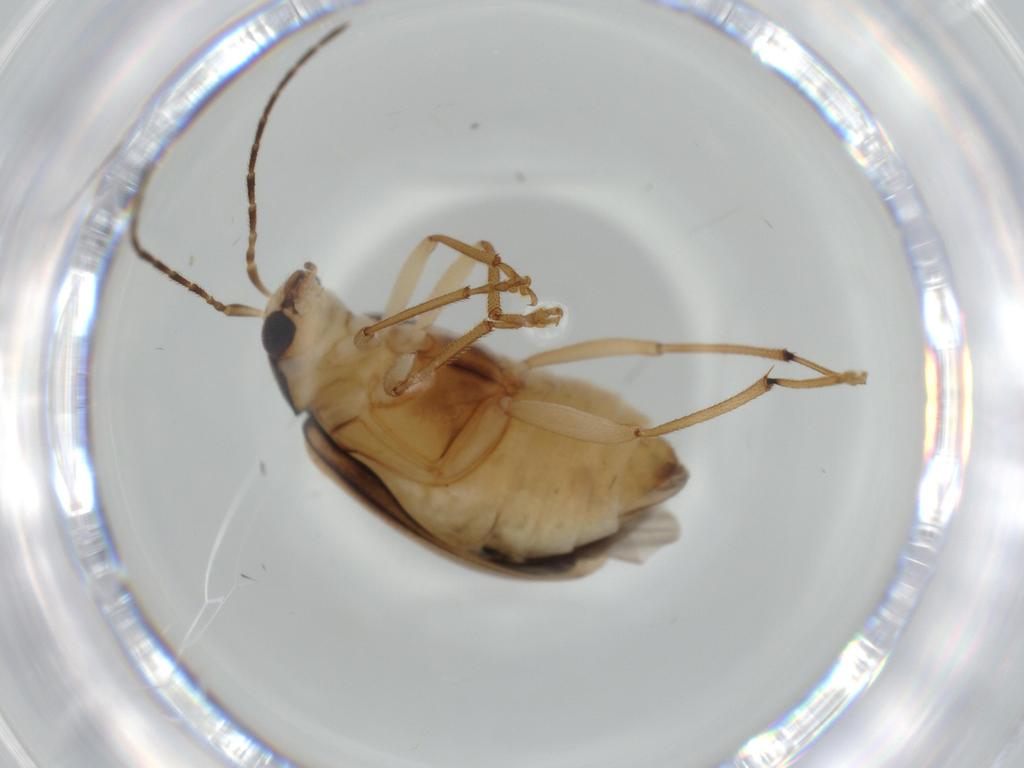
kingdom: Animalia
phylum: Arthropoda
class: Insecta
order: Coleoptera
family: Chrysomelidae
